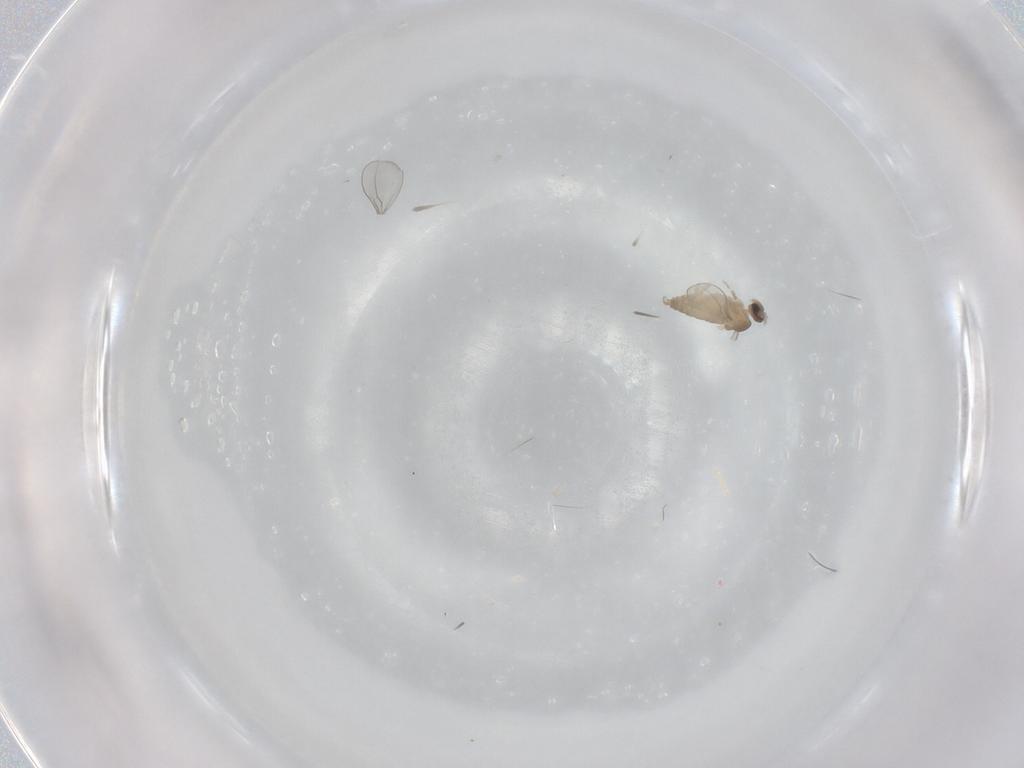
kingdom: Animalia
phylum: Arthropoda
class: Insecta
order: Diptera
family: Cecidomyiidae
